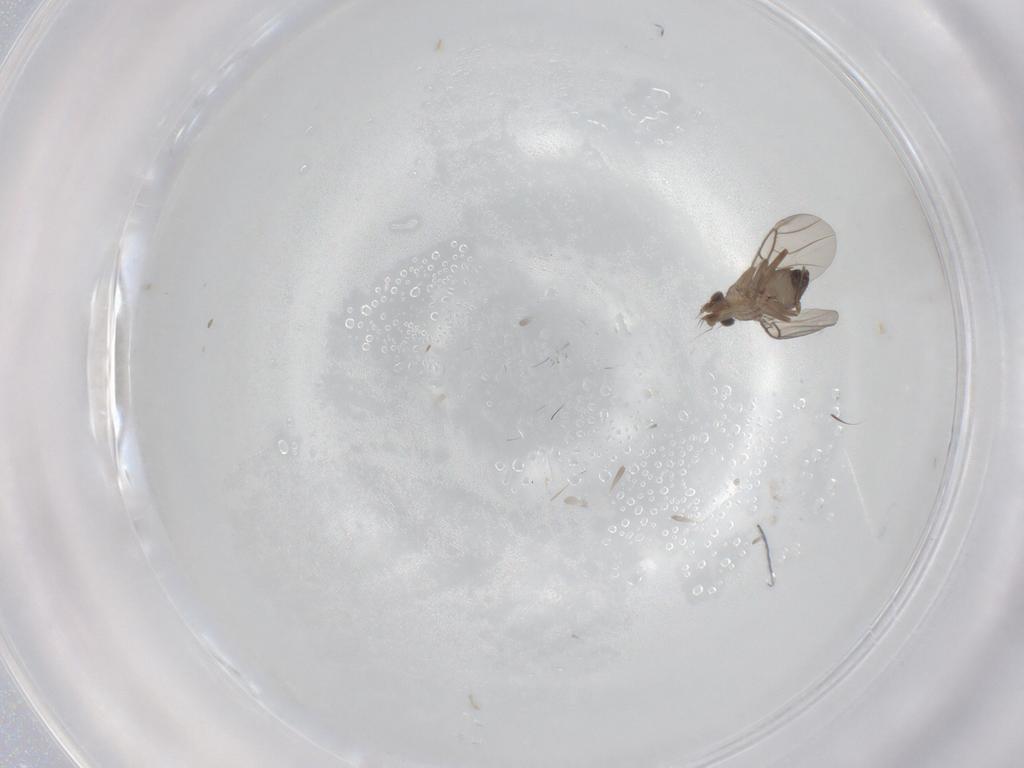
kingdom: Animalia
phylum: Arthropoda
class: Insecta
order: Diptera
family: Phoridae
